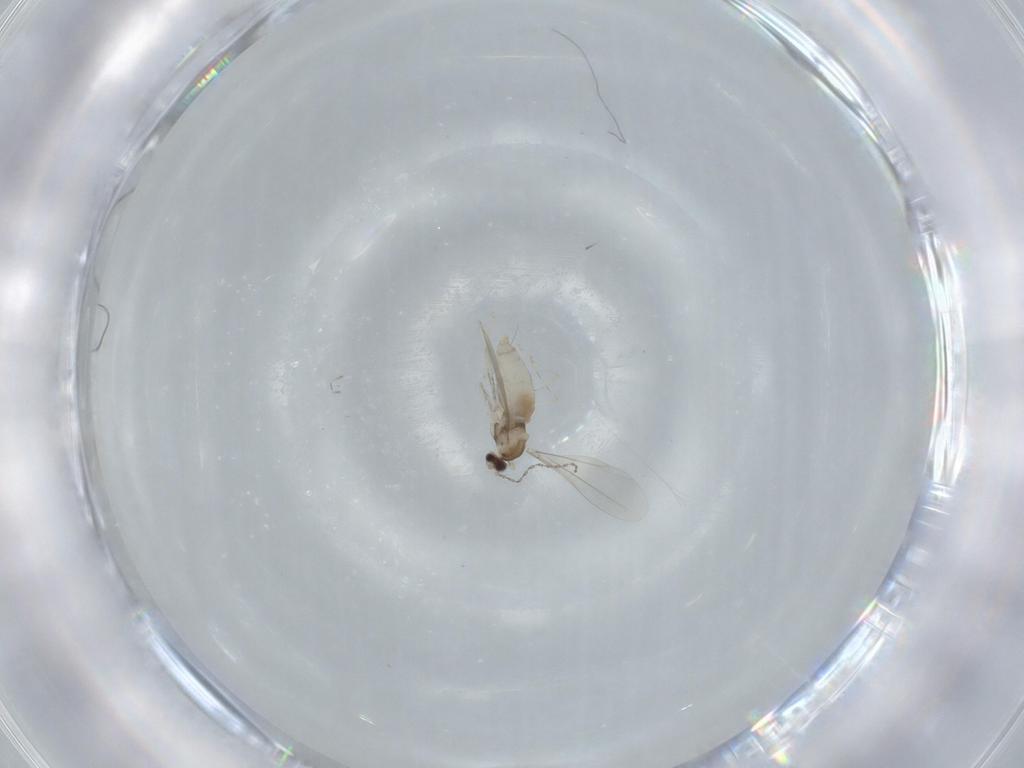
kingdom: Animalia
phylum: Arthropoda
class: Insecta
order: Diptera
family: Cecidomyiidae
